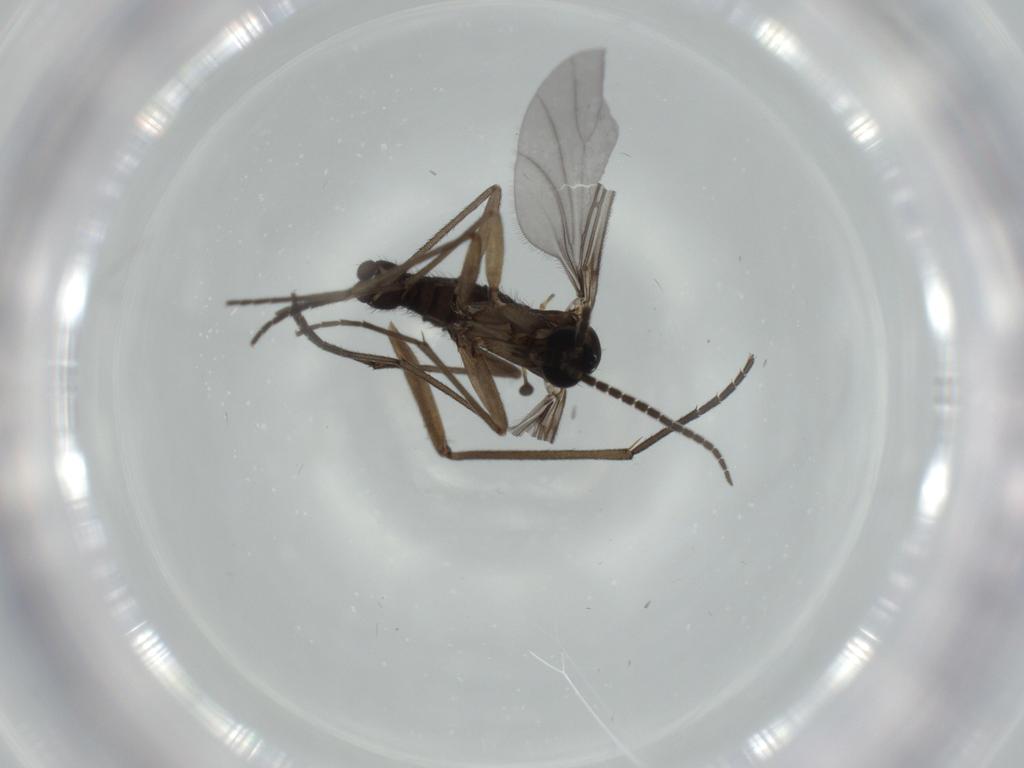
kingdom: Animalia
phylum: Arthropoda
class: Insecta
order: Diptera
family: Sciaridae
